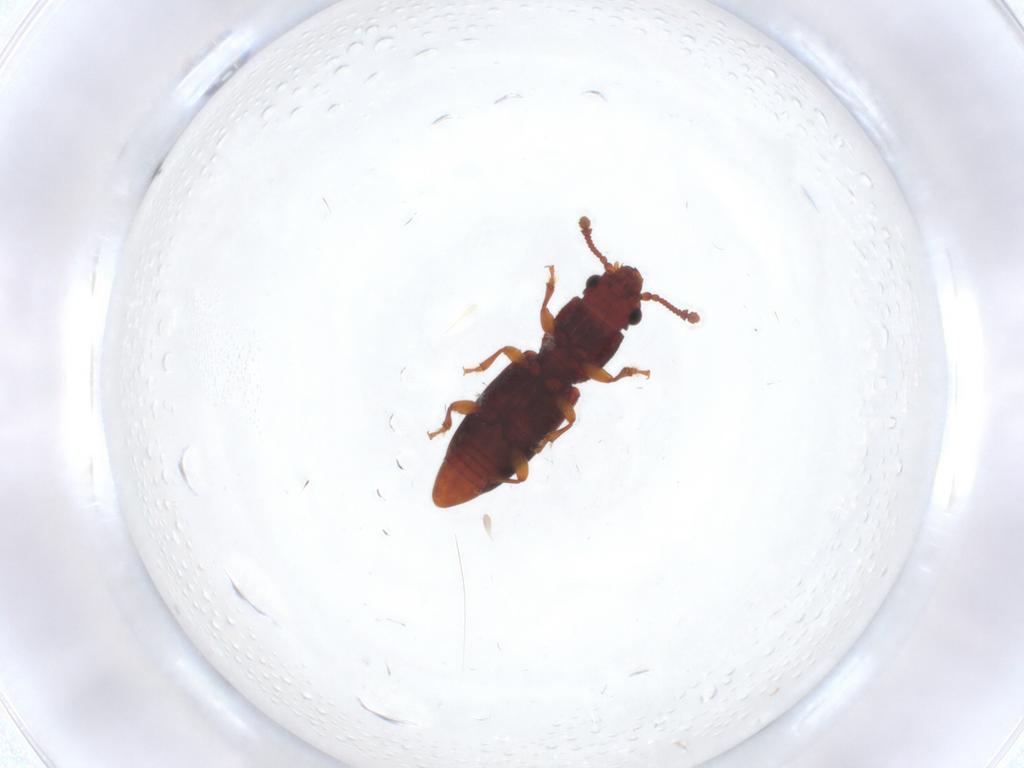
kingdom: Animalia
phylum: Arthropoda
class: Insecta
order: Coleoptera
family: Monotomidae
